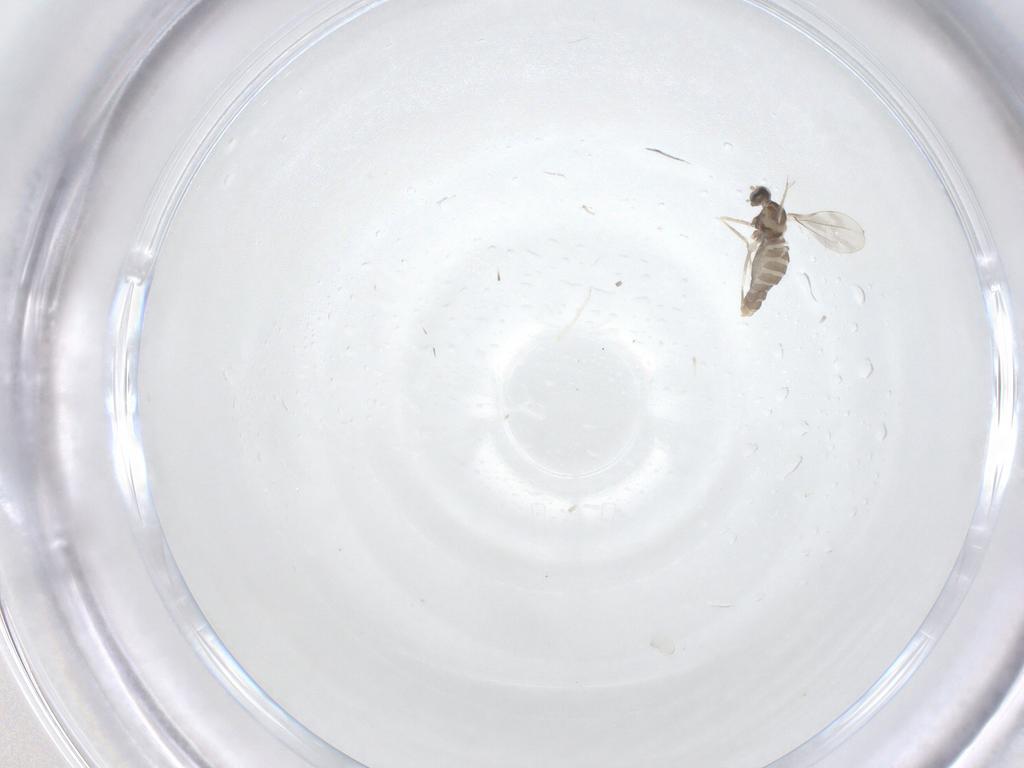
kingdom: Animalia
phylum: Arthropoda
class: Insecta
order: Diptera
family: Cecidomyiidae
